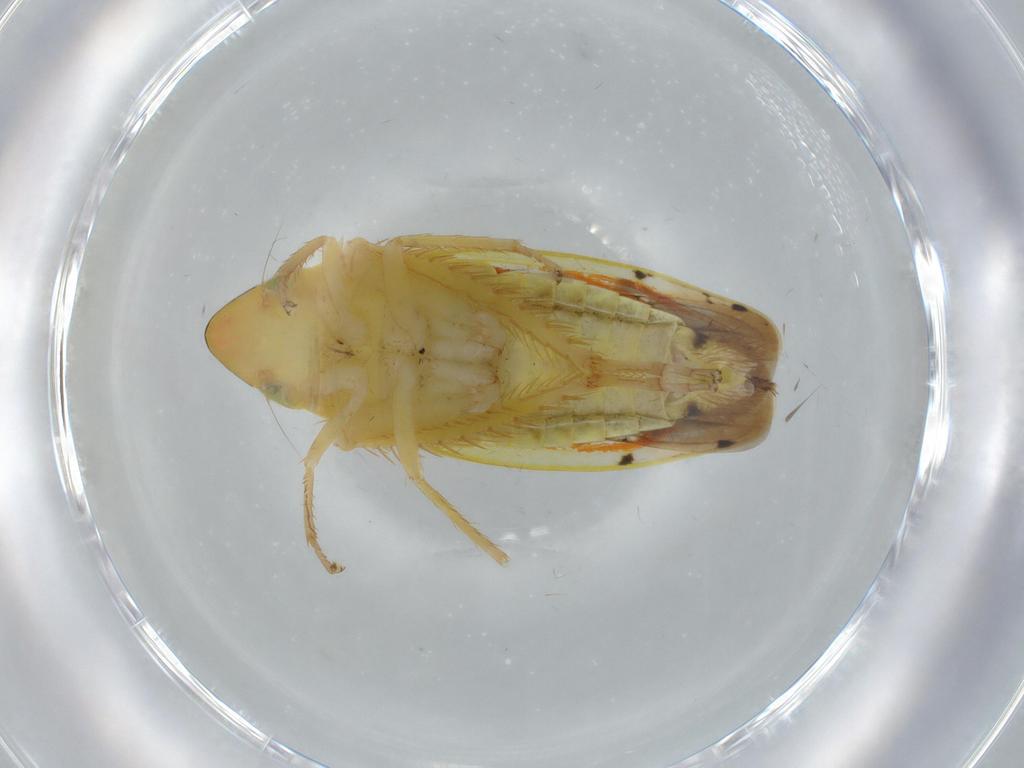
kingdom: Animalia
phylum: Arthropoda
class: Insecta
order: Hemiptera
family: Cicadellidae
